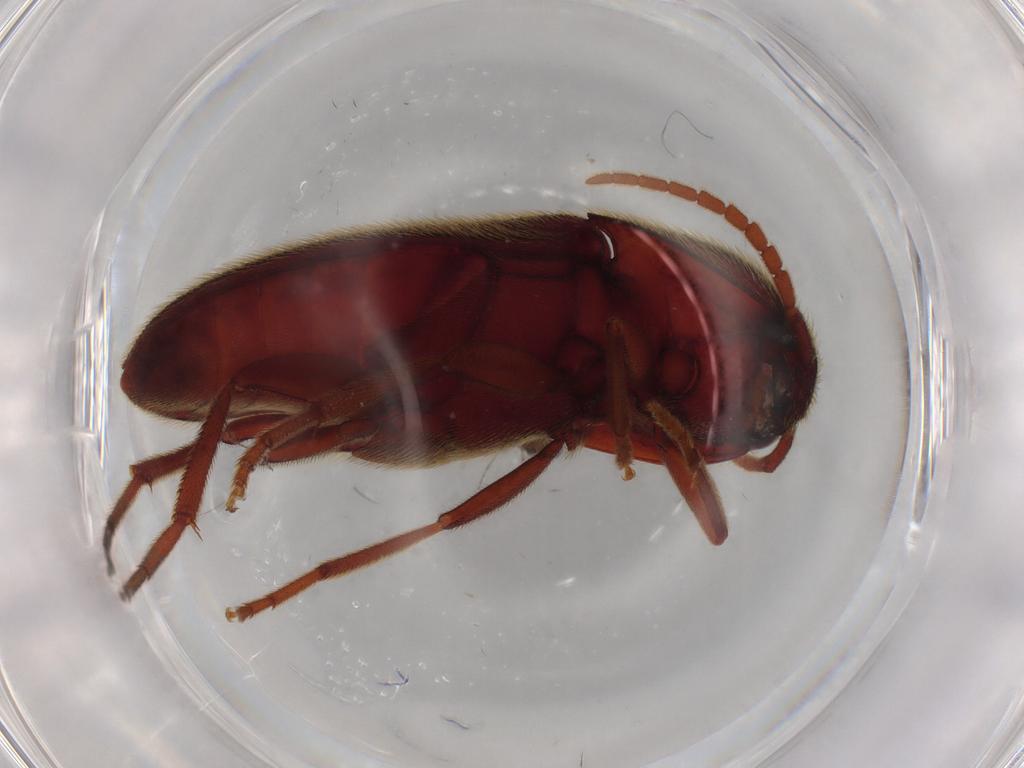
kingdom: Animalia
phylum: Arthropoda
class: Insecta
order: Coleoptera
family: Eucnemidae
